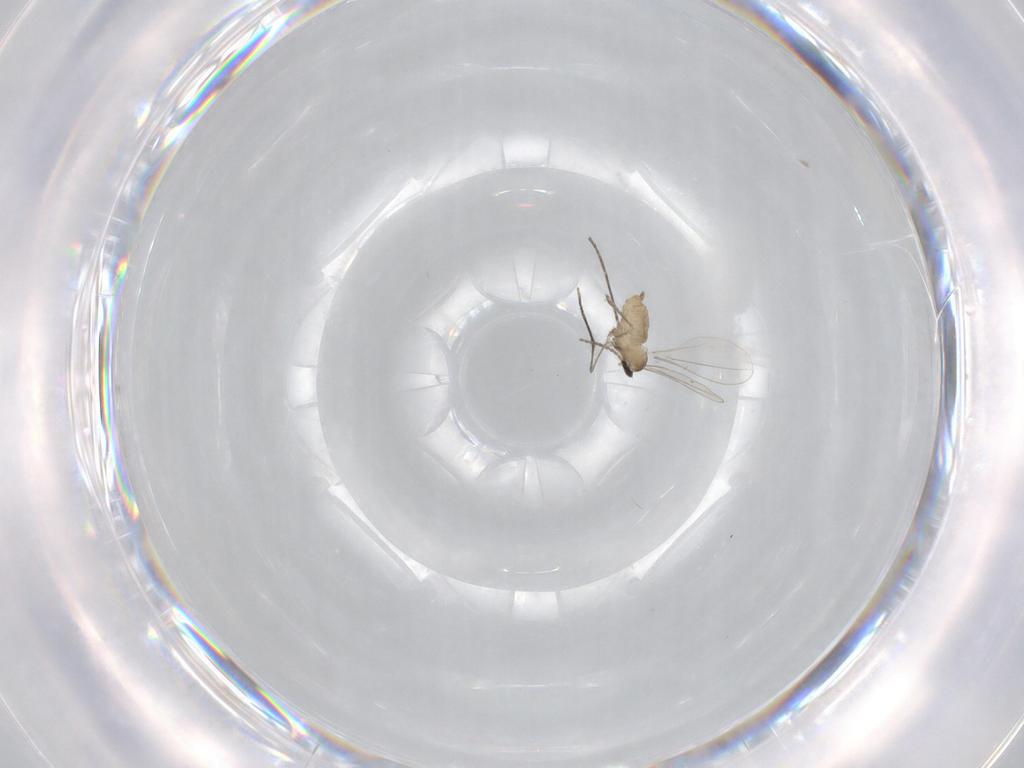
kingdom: Animalia
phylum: Arthropoda
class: Insecta
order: Diptera
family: Cecidomyiidae
